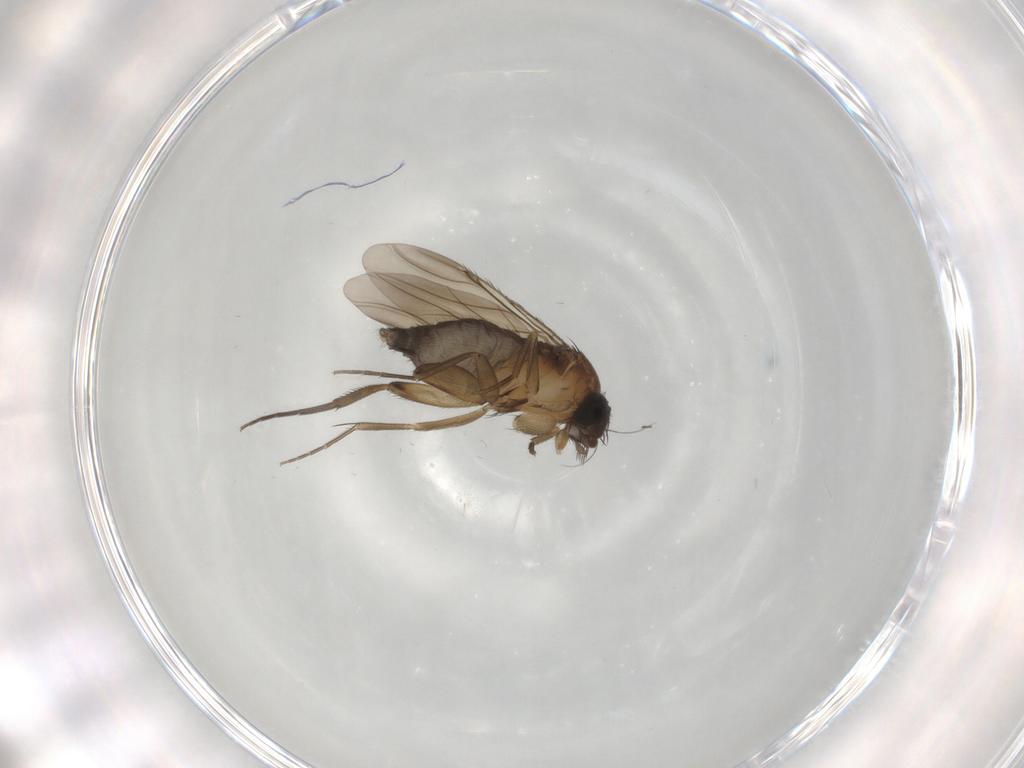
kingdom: Animalia
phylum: Arthropoda
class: Insecta
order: Diptera
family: Phoridae
